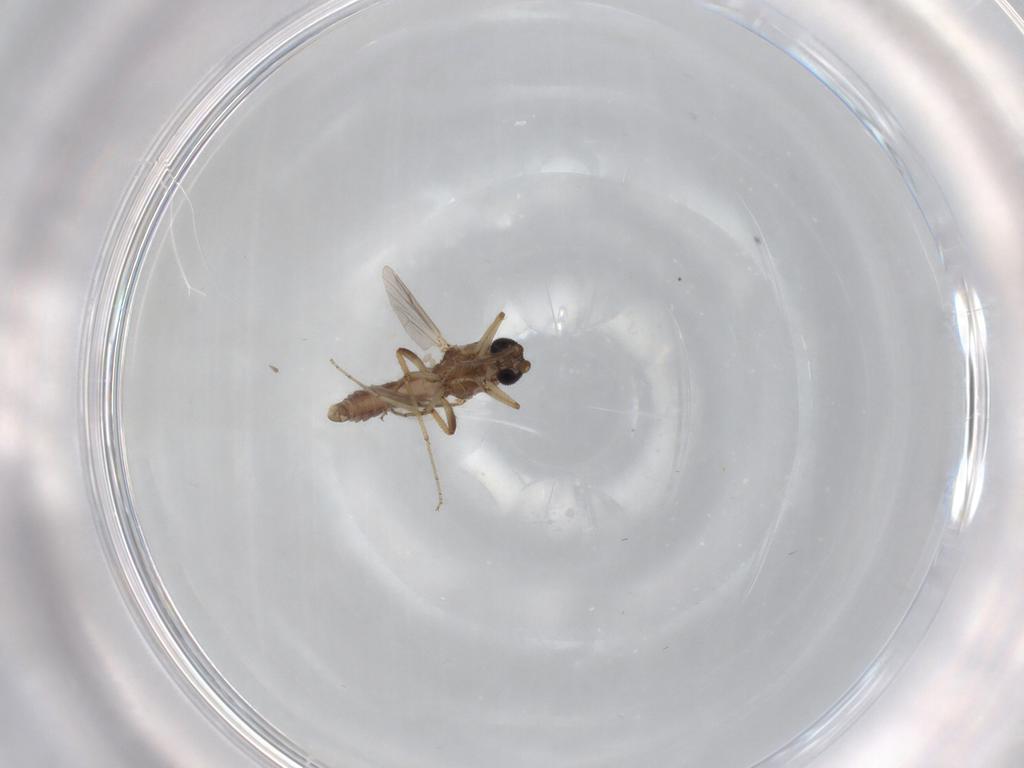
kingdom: Animalia
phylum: Arthropoda
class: Insecta
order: Diptera
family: Ceratopogonidae
